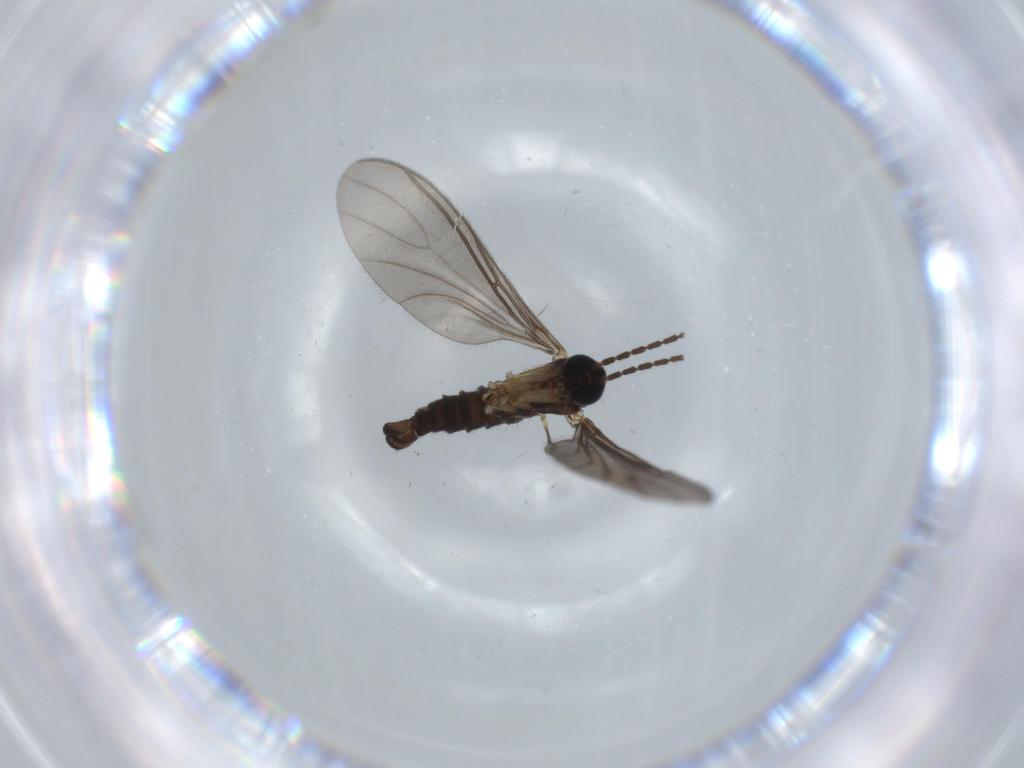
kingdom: Animalia
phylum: Arthropoda
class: Insecta
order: Diptera
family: Sciaridae
